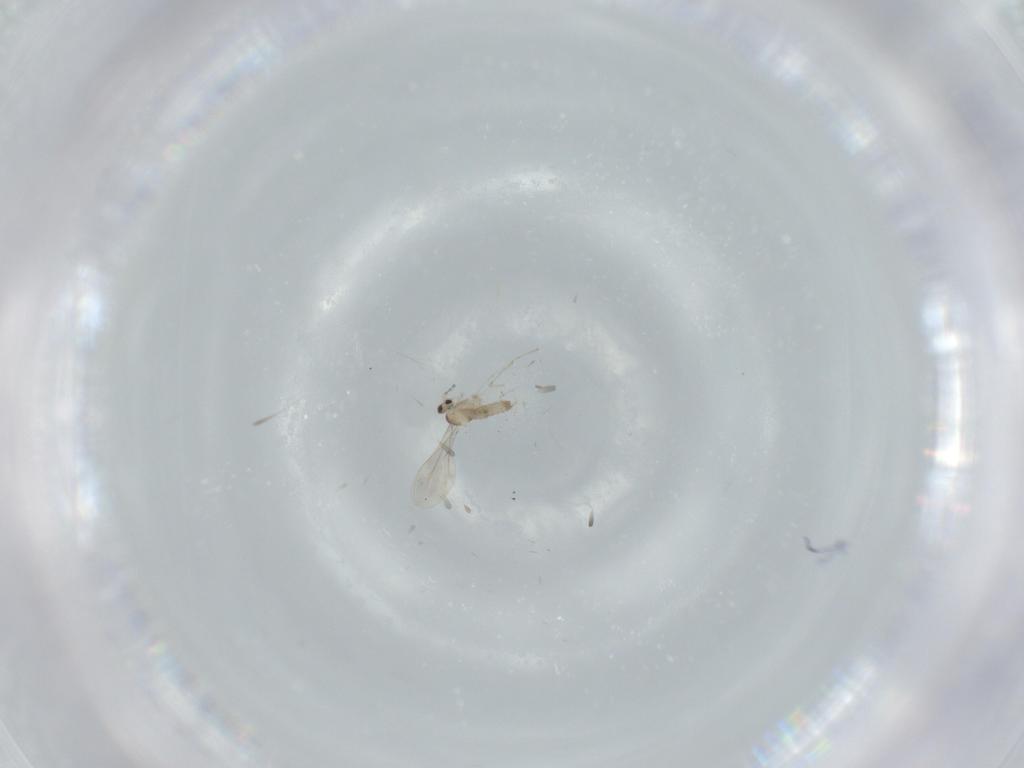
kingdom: Animalia
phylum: Arthropoda
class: Insecta
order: Diptera
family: Cecidomyiidae
